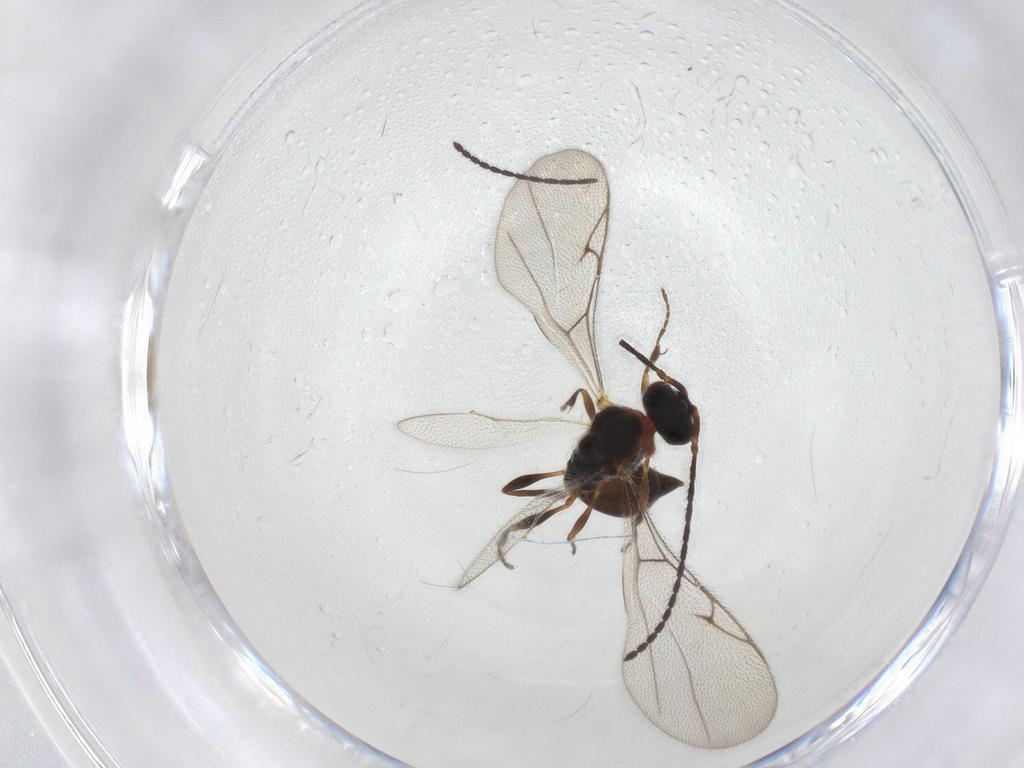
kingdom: Animalia
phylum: Arthropoda
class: Insecta
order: Hymenoptera
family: Diapriidae
